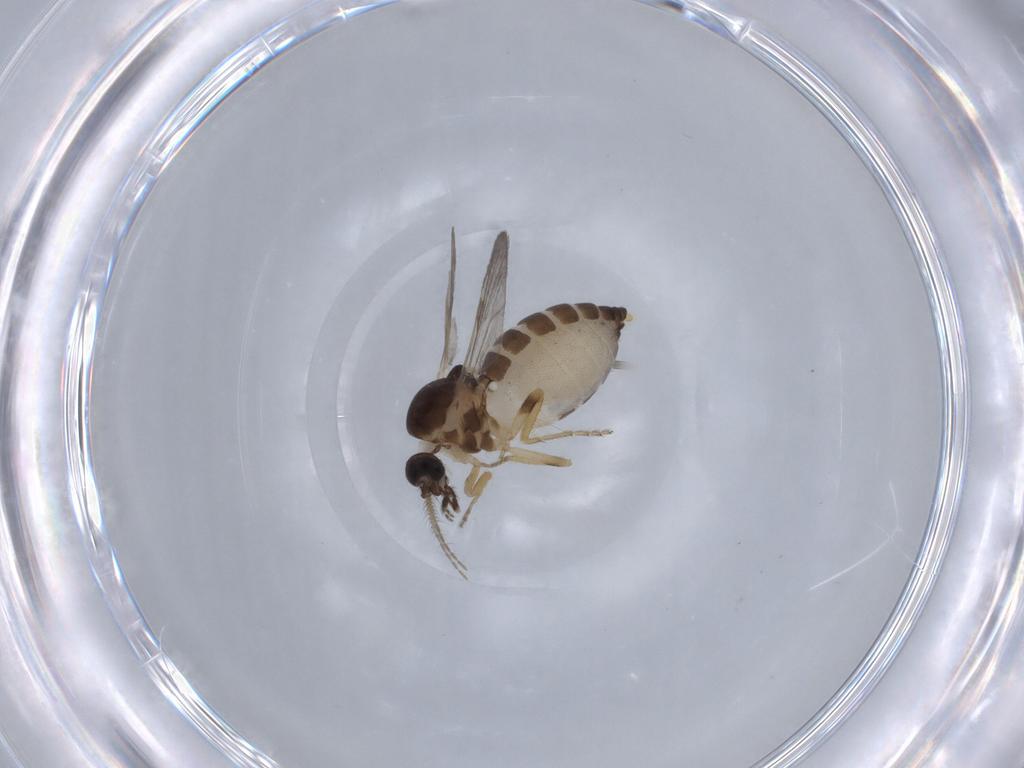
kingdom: Animalia
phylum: Arthropoda
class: Insecta
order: Diptera
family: Ceratopogonidae
